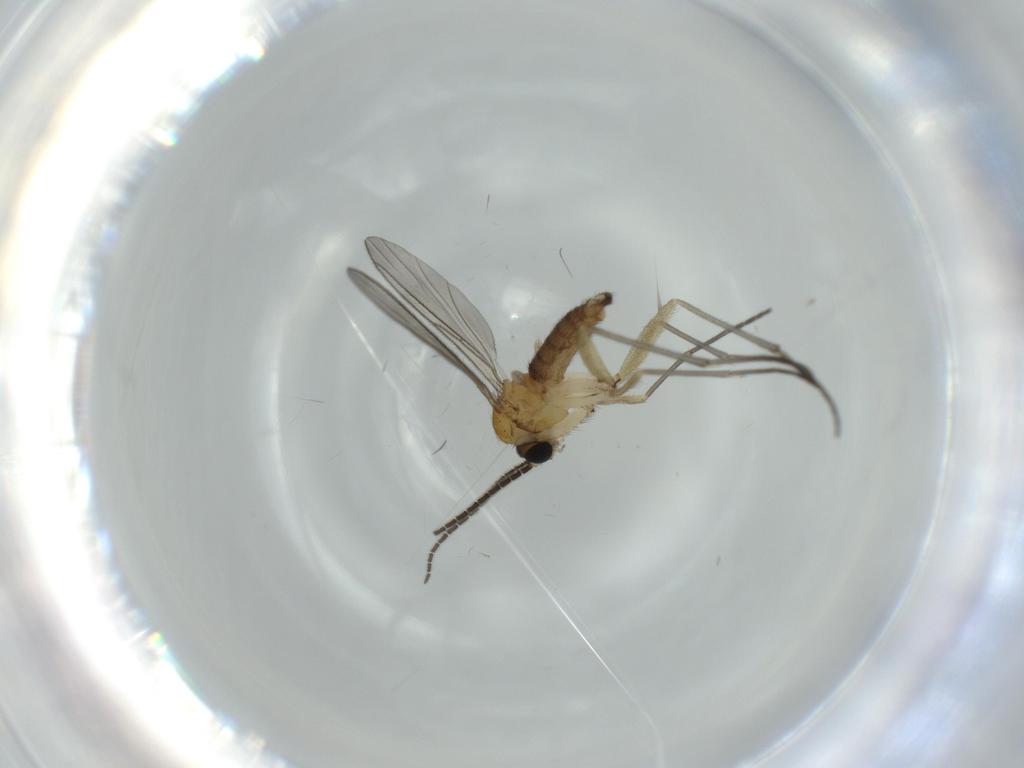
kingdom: Animalia
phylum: Arthropoda
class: Insecta
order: Diptera
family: Sciaridae
